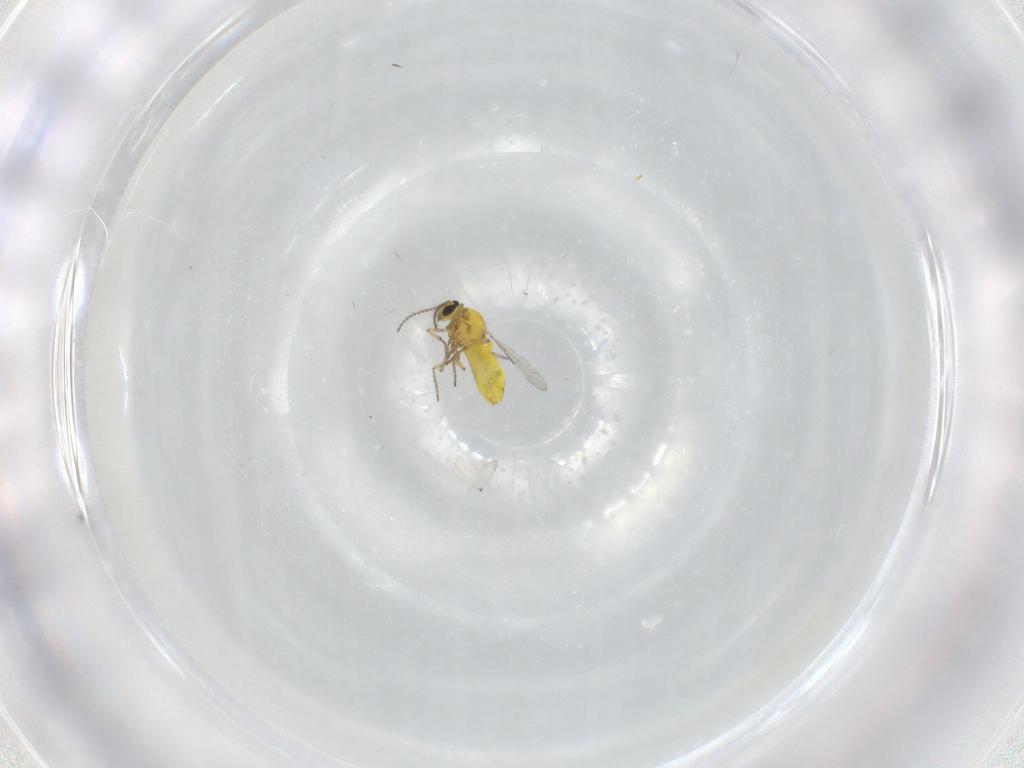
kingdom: Animalia
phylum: Arthropoda
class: Insecta
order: Diptera
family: Ceratopogonidae
